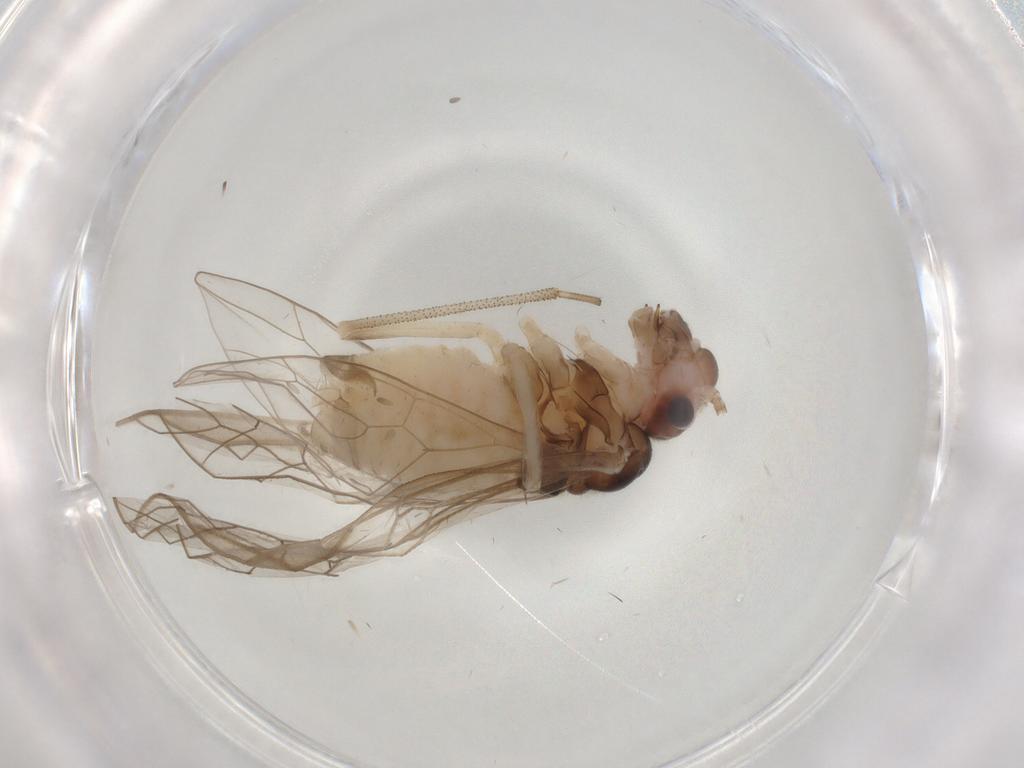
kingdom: Animalia
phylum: Arthropoda
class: Insecta
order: Psocodea
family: Stenopsocidae
